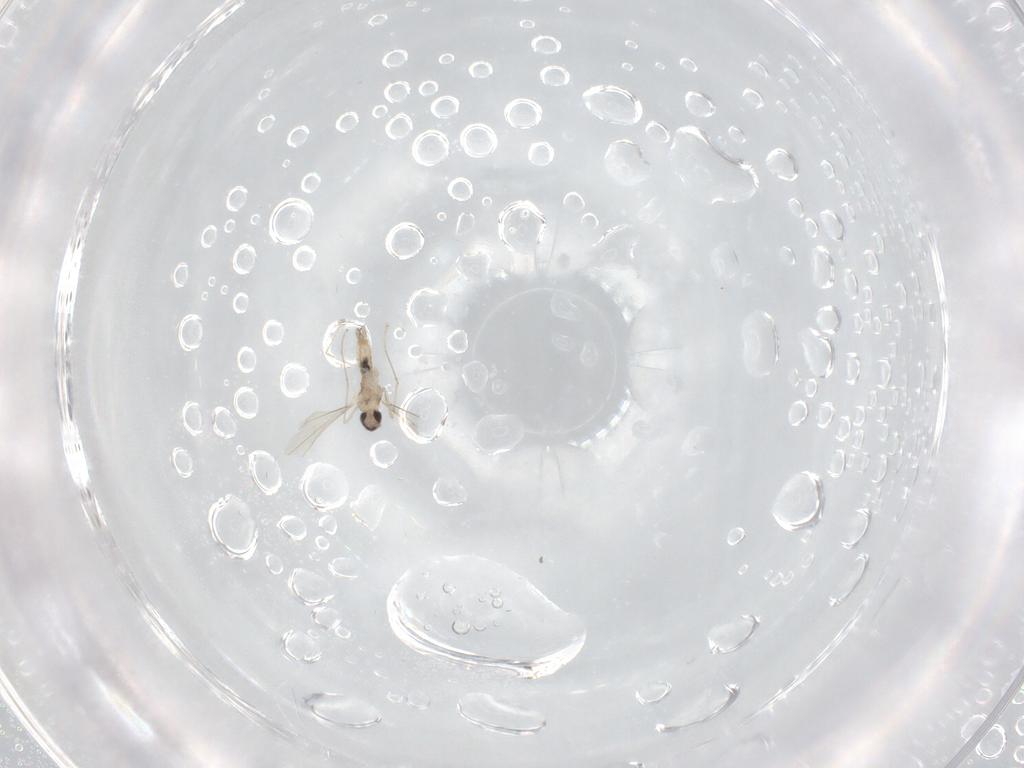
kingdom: Animalia
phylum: Arthropoda
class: Insecta
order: Diptera
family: Cecidomyiidae
